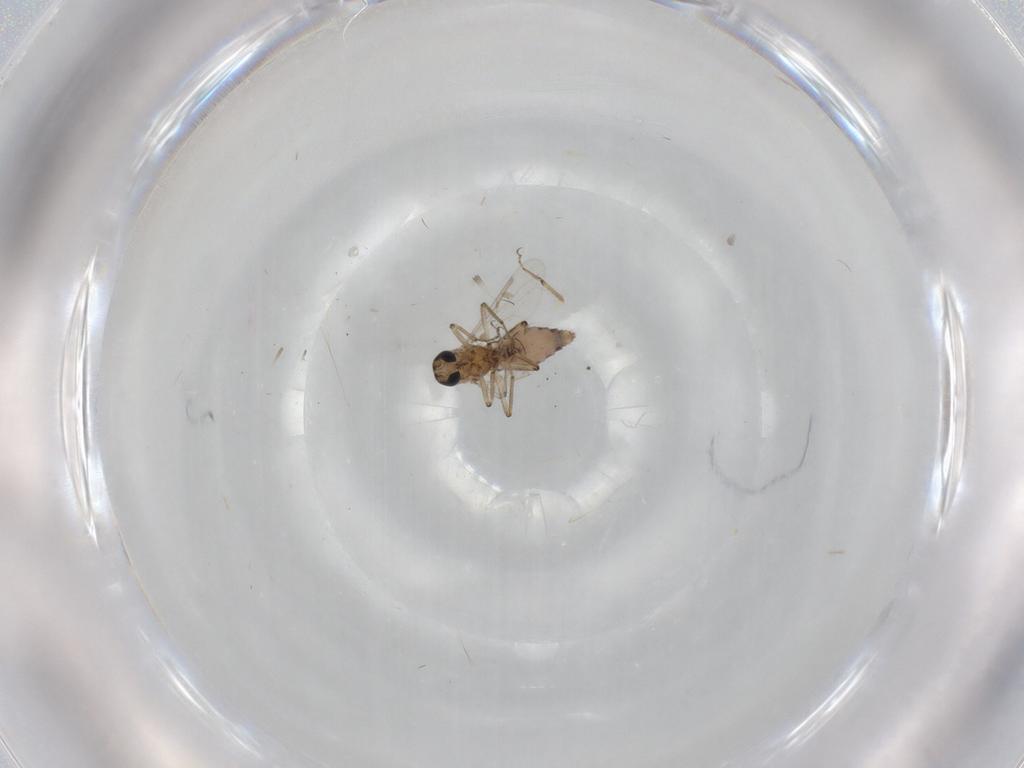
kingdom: Animalia
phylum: Arthropoda
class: Insecta
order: Diptera
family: Ceratopogonidae
